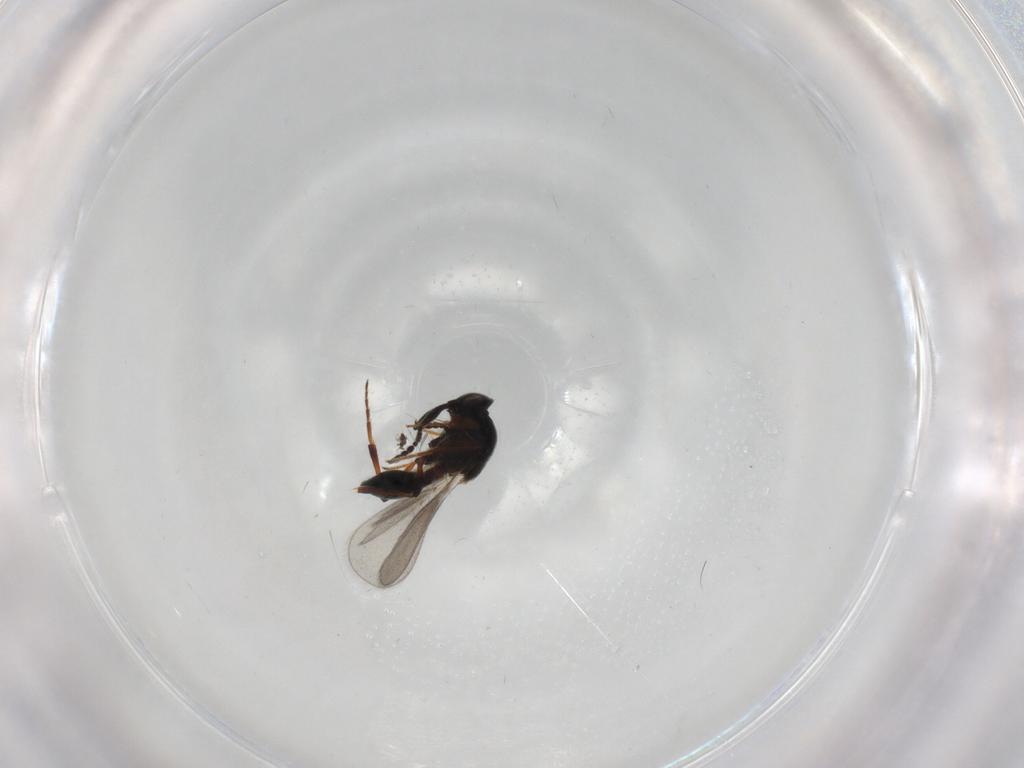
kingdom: Animalia
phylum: Arthropoda
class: Insecta
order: Hymenoptera
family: Platygastridae
